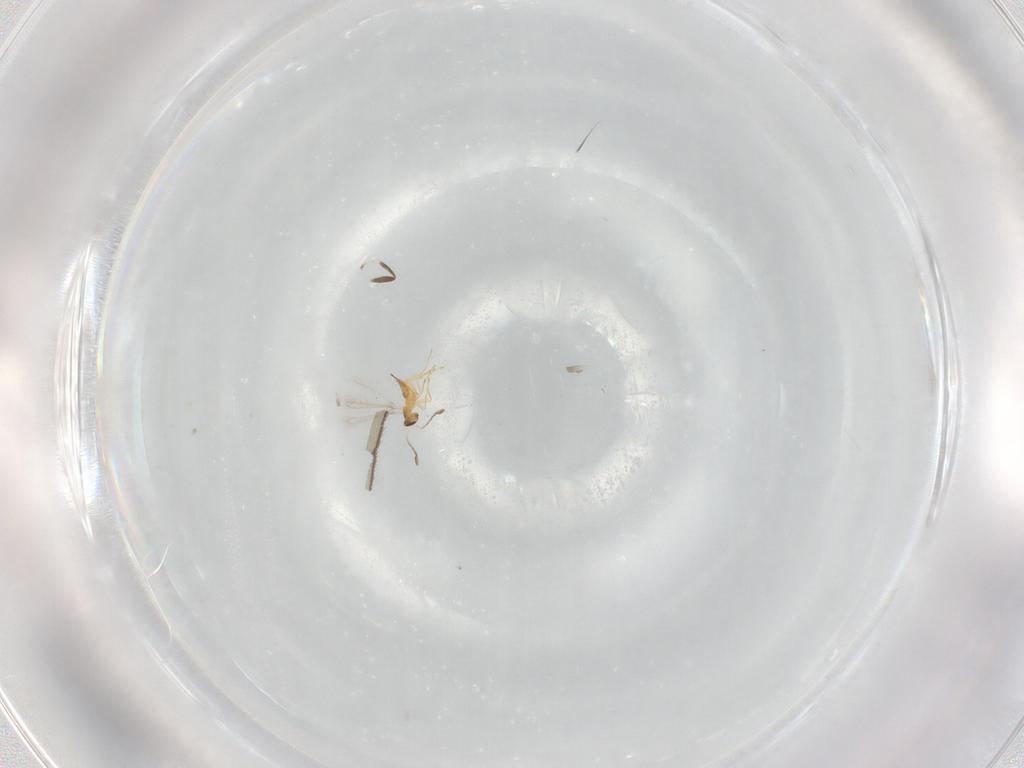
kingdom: Animalia
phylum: Arthropoda
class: Insecta
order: Hymenoptera
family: Mymaridae
